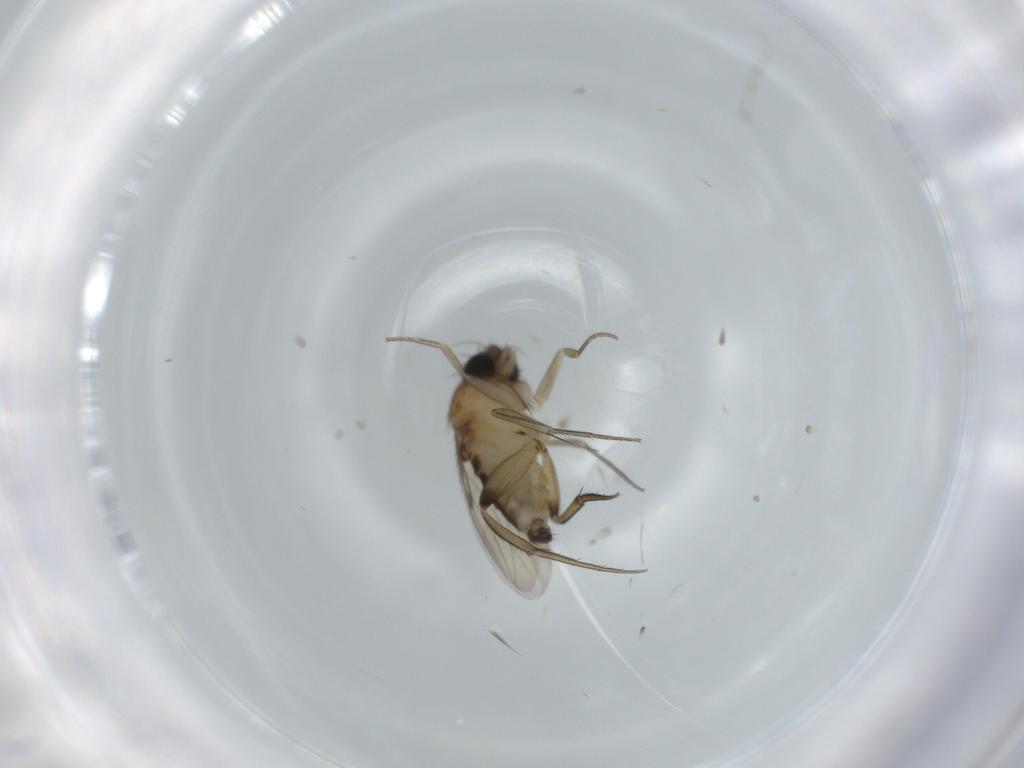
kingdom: Animalia
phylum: Arthropoda
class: Insecta
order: Diptera
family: Phoridae
